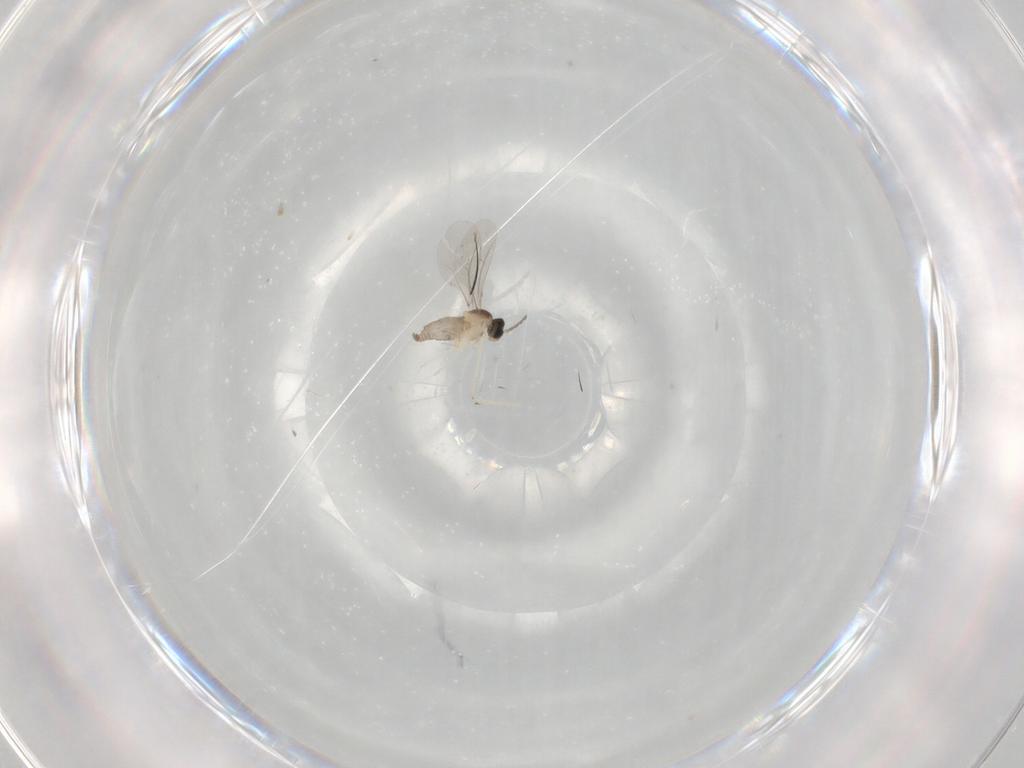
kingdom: Animalia
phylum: Arthropoda
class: Insecta
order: Diptera
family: Cecidomyiidae
